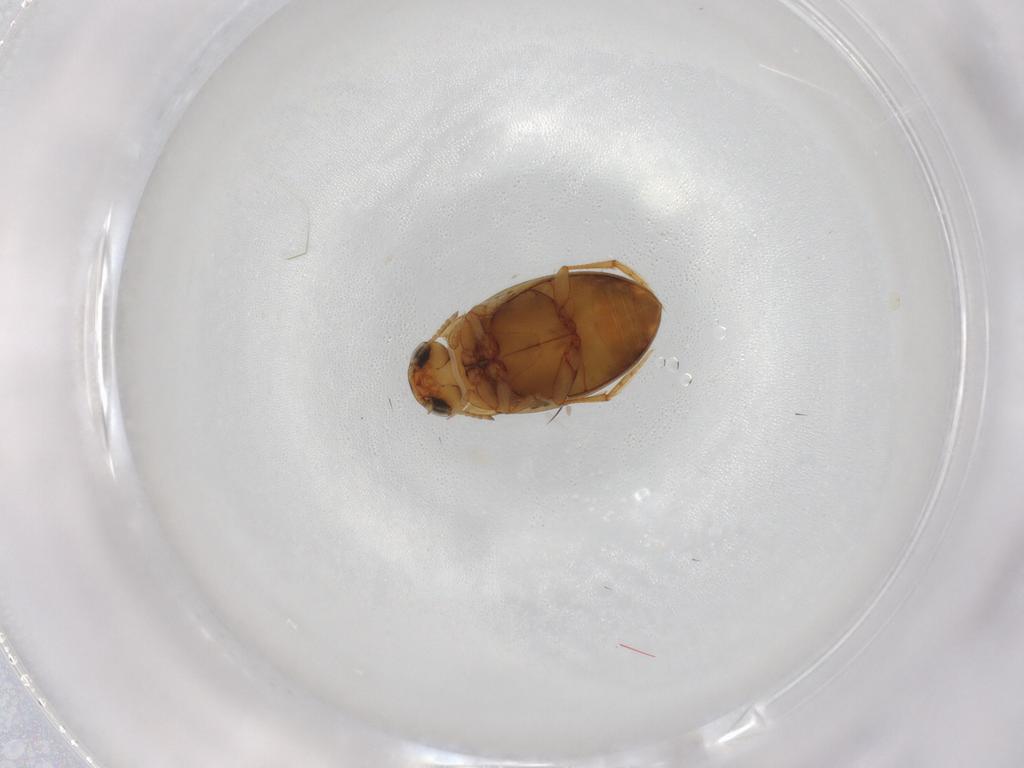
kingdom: Animalia
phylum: Arthropoda
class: Insecta
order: Coleoptera
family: Dytiscidae
